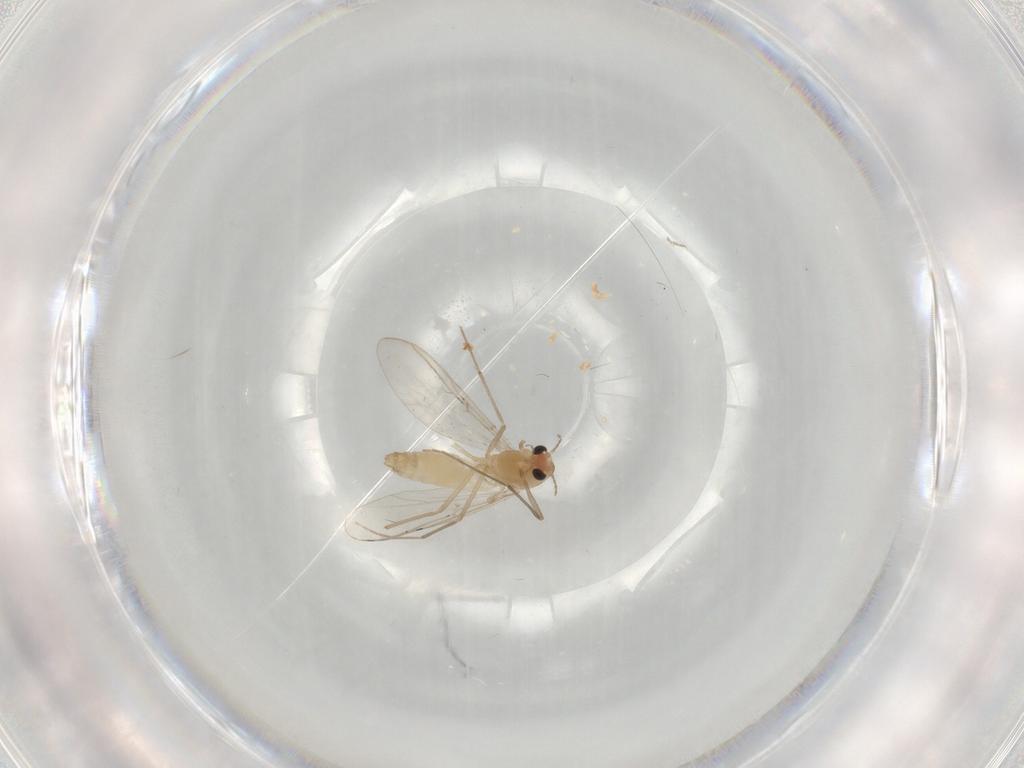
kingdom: Animalia
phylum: Arthropoda
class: Insecta
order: Diptera
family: Chironomidae
